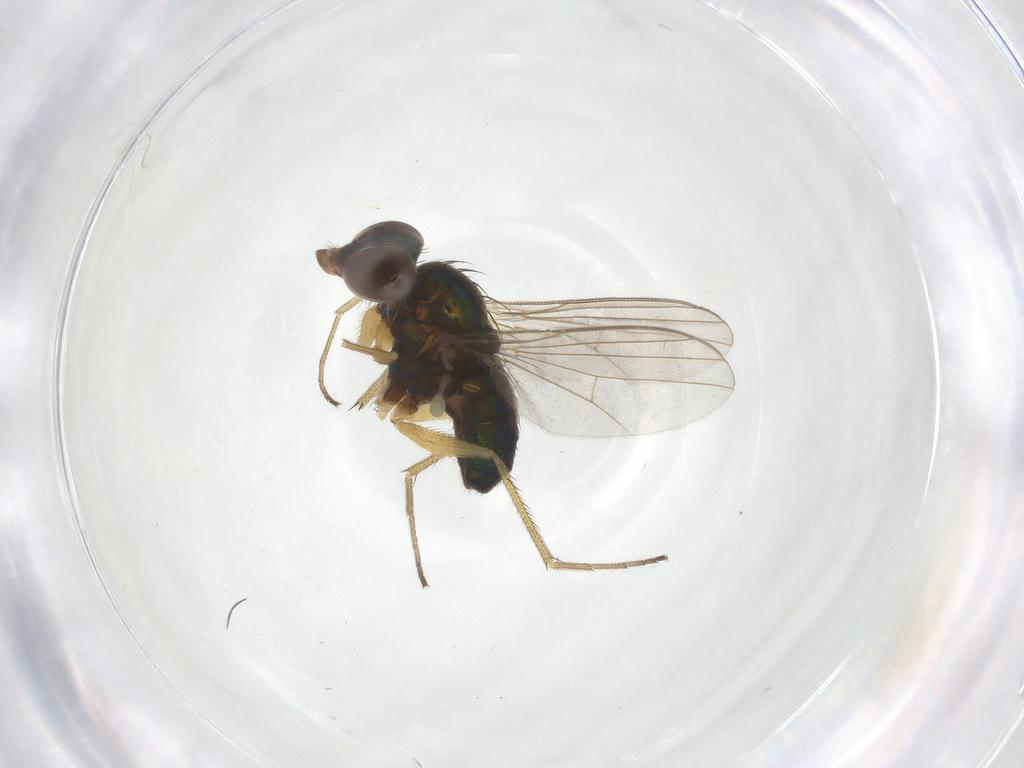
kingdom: Animalia
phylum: Arthropoda
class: Insecta
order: Diptera
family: Dolichopodidae
